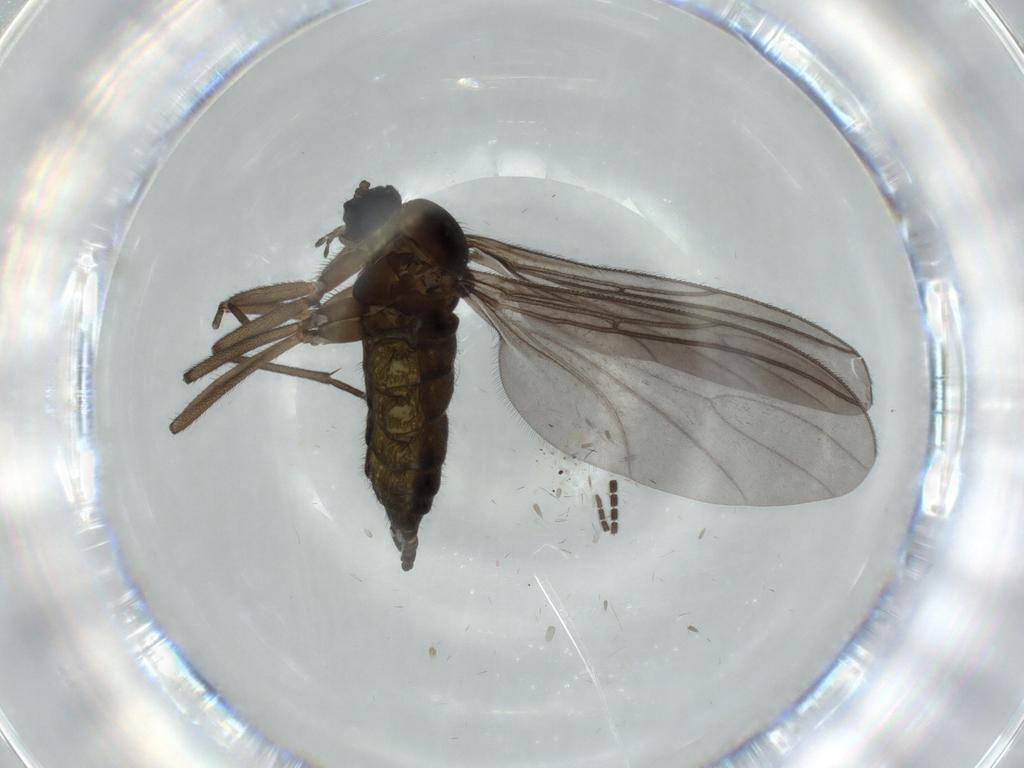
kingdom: Animalia
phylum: Arthropoda
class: Insecta
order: Diptera
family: Sciaridae
